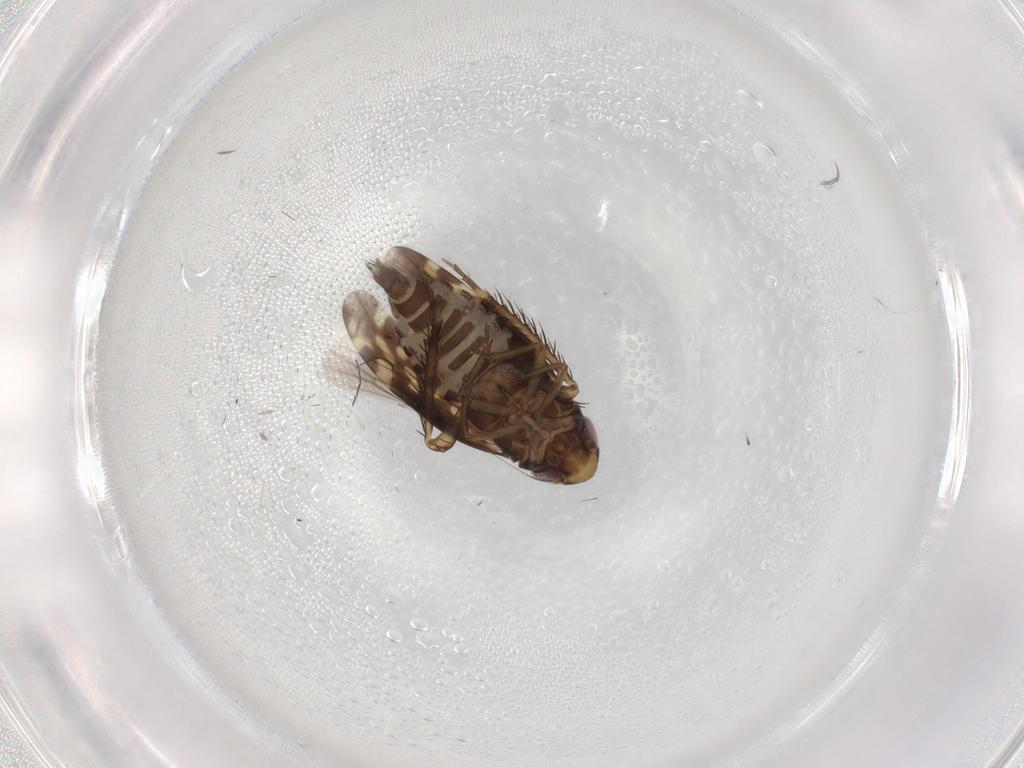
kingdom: Animalia
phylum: Arthropoda
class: Insecta
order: Hemiptera
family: Cicadellidae
